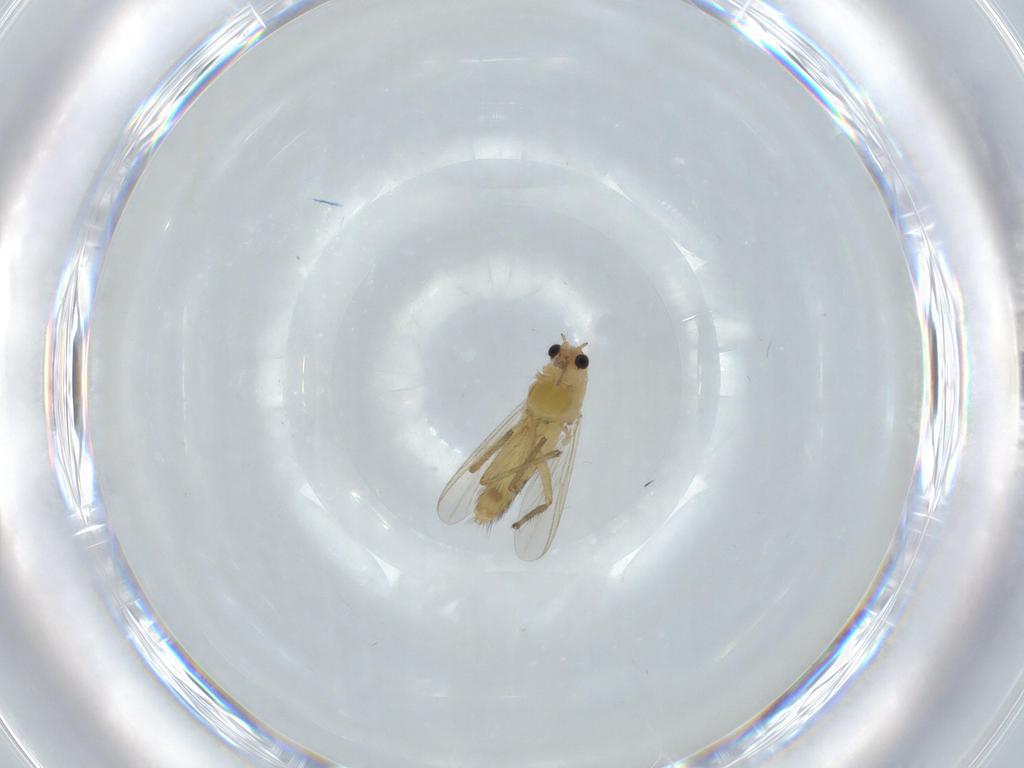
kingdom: Animalia
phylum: Arthropoda
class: Insecta
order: Diptera
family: Chironomidae
